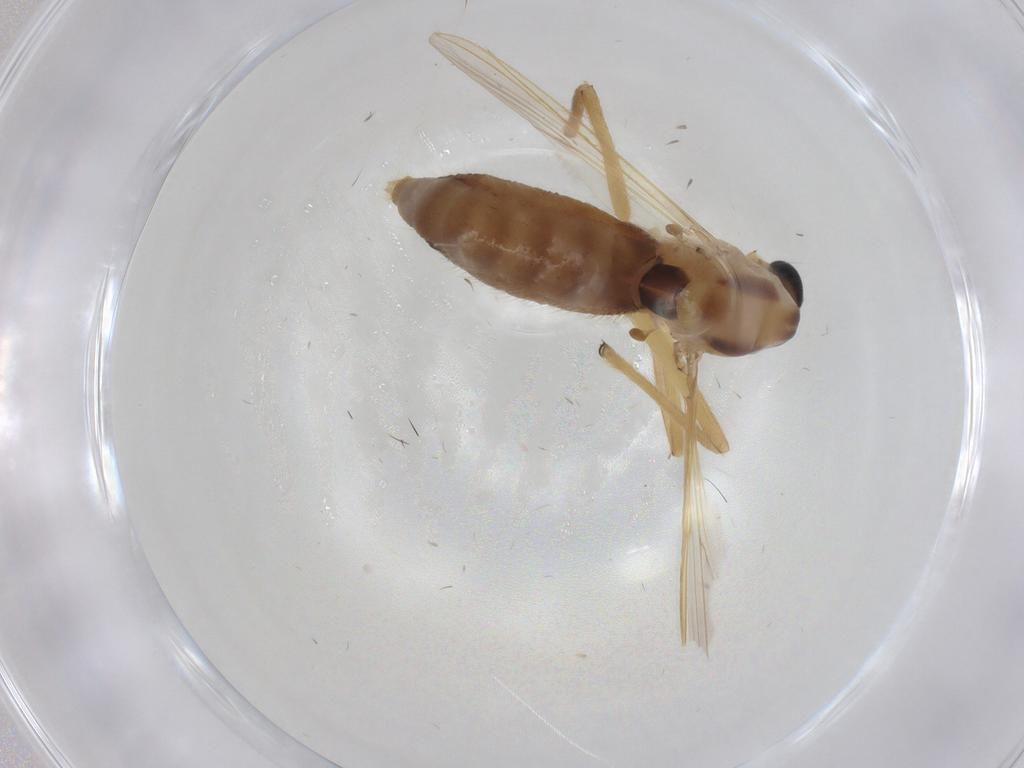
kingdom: Animalia
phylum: Arthropoda
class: Insecta
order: Diptera
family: Chironomidae
